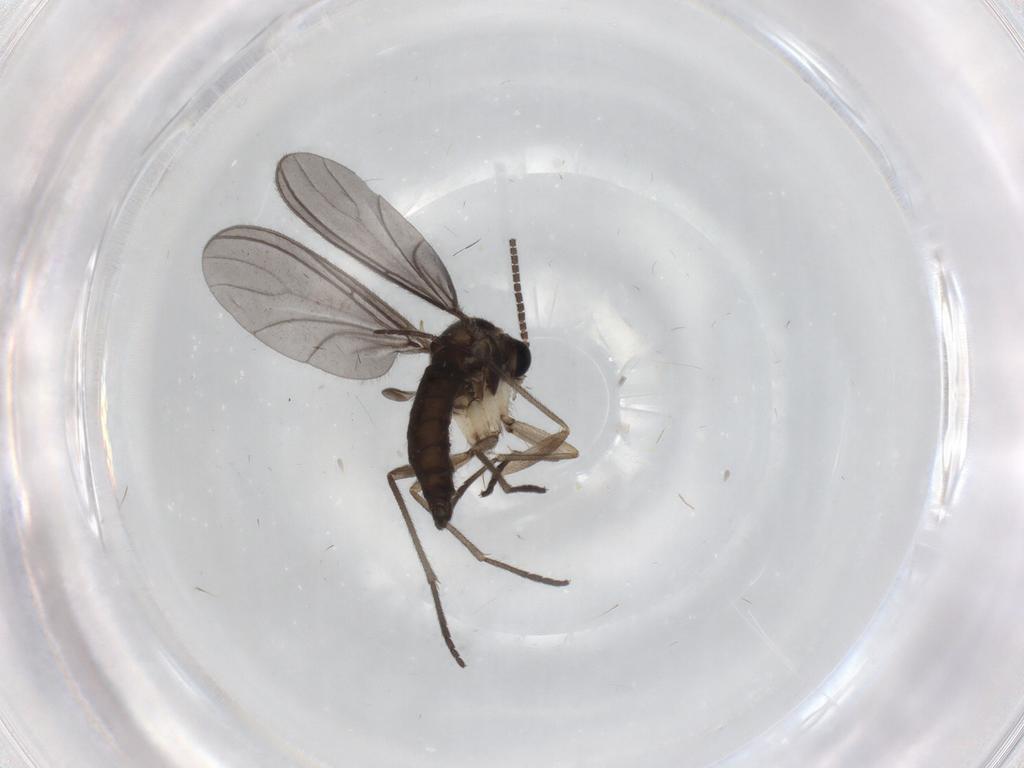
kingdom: Animalia
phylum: Arthropoda
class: Insecta
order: Diptera
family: Sciaridae
